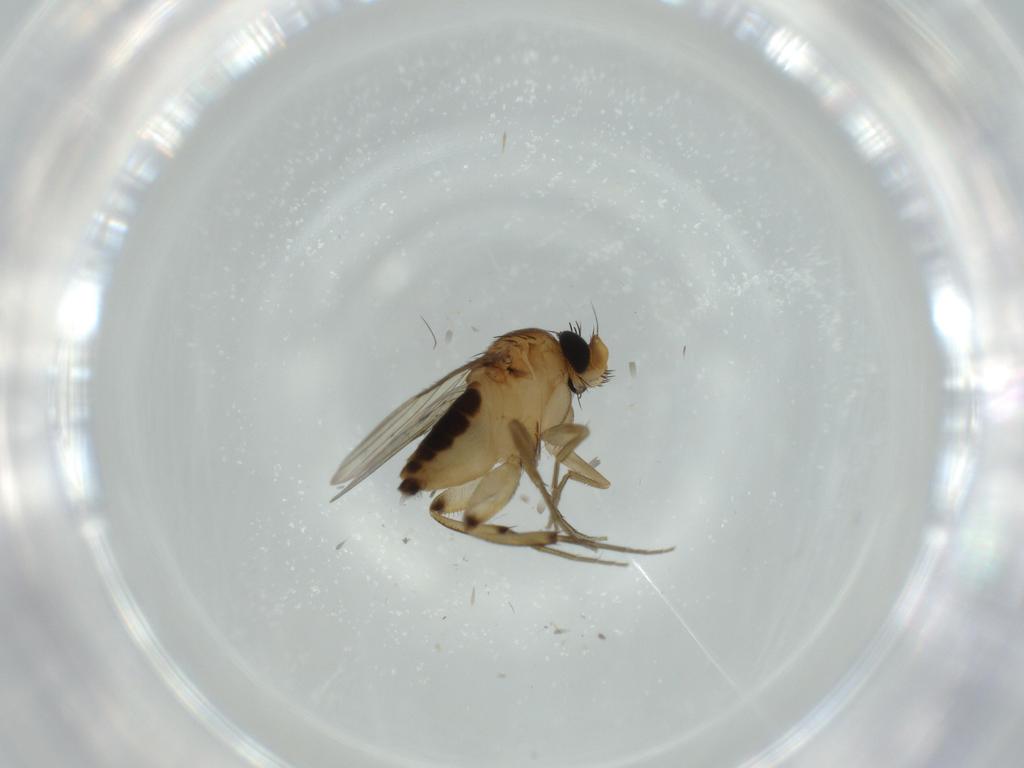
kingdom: Animalia
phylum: Arthropoda
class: Insecta
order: Diptera
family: Phoridae
